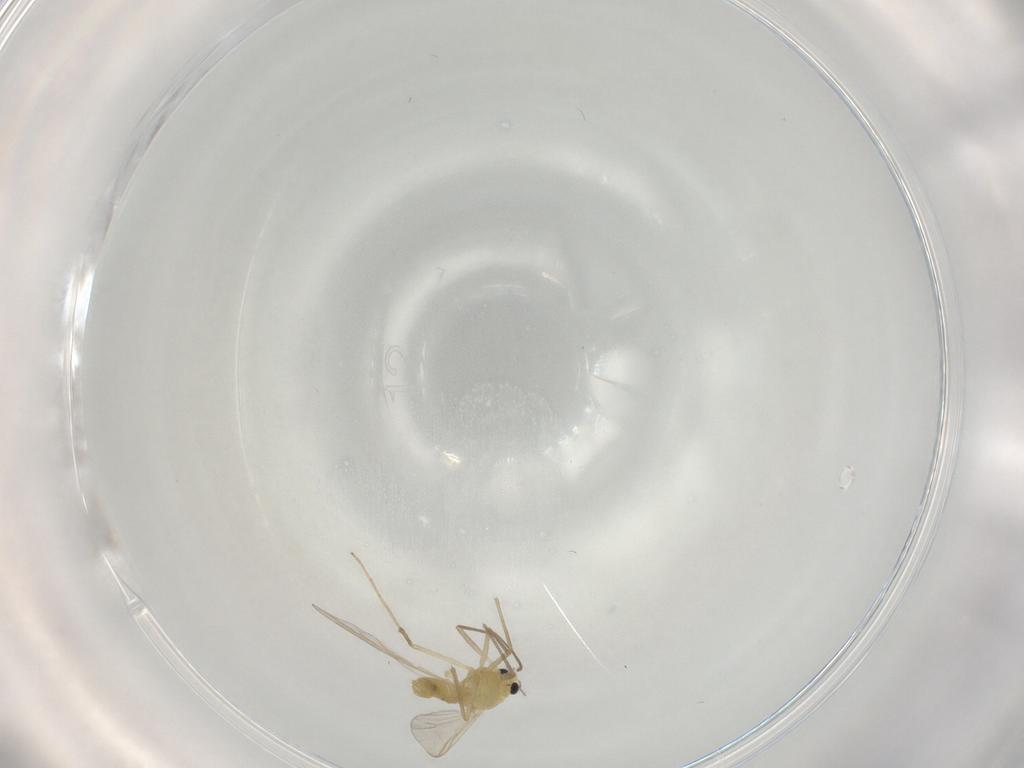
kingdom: Animalia
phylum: Arthropoda
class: Insecta
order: Diptera
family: Chironomidae
